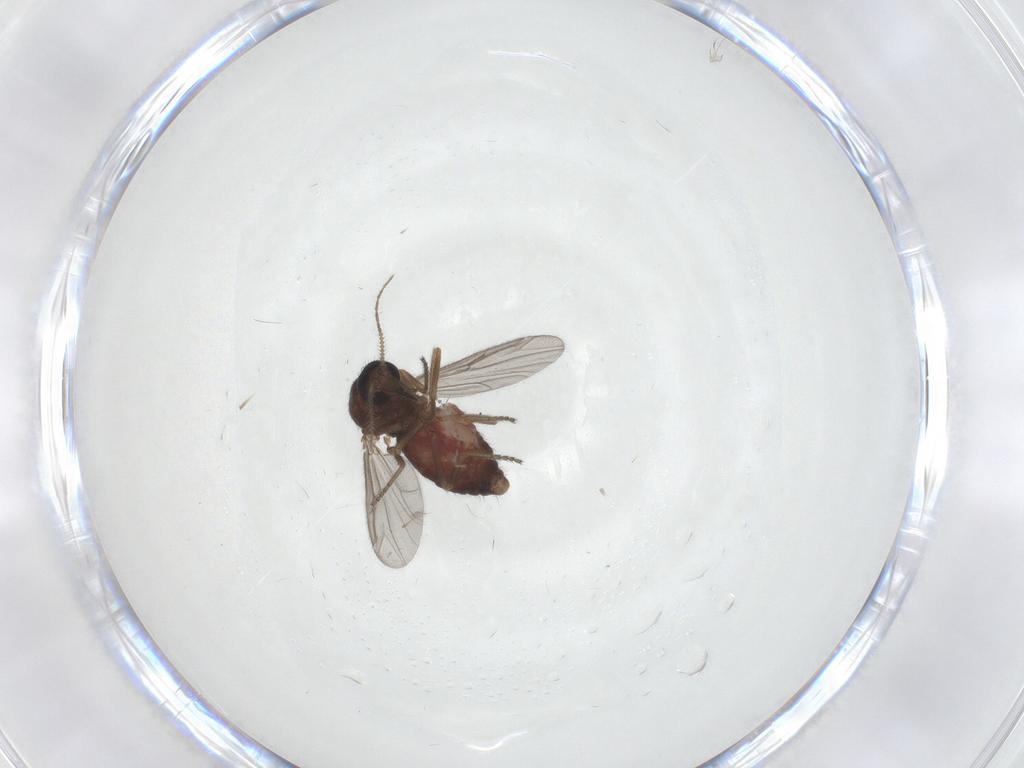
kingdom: Animalia
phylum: Arthropoda
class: Insecta
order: Diptera
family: Ceratopogonidae
